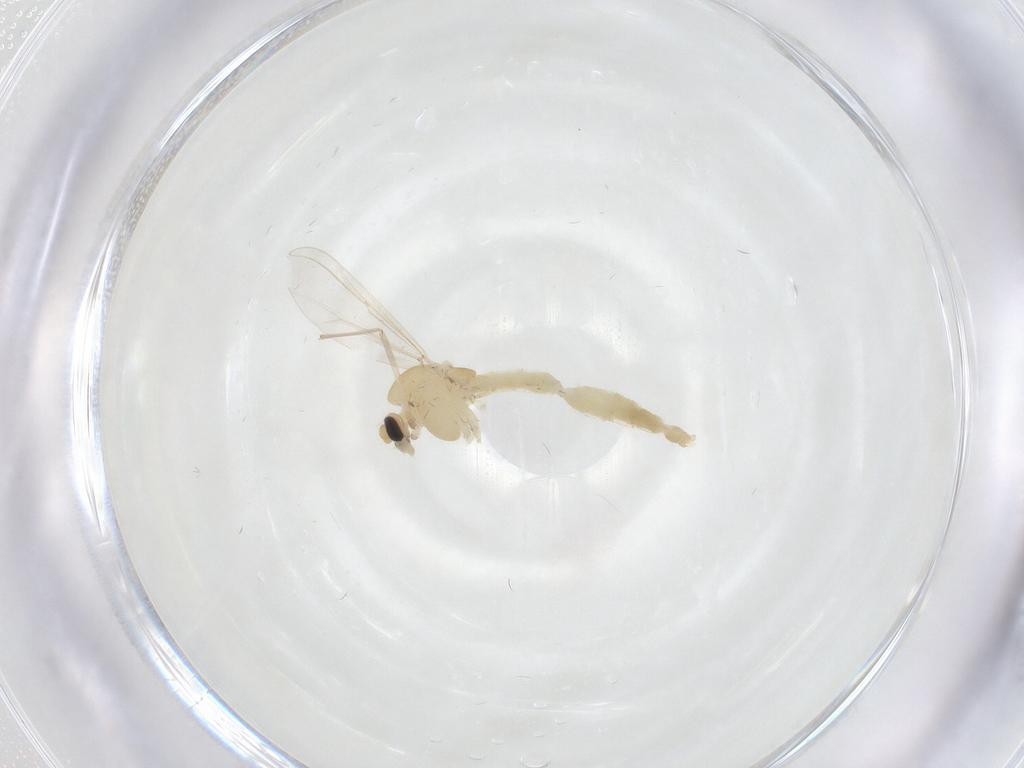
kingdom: Animalia
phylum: Arthropoda
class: Insecta
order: Diptera
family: Chironomidae
